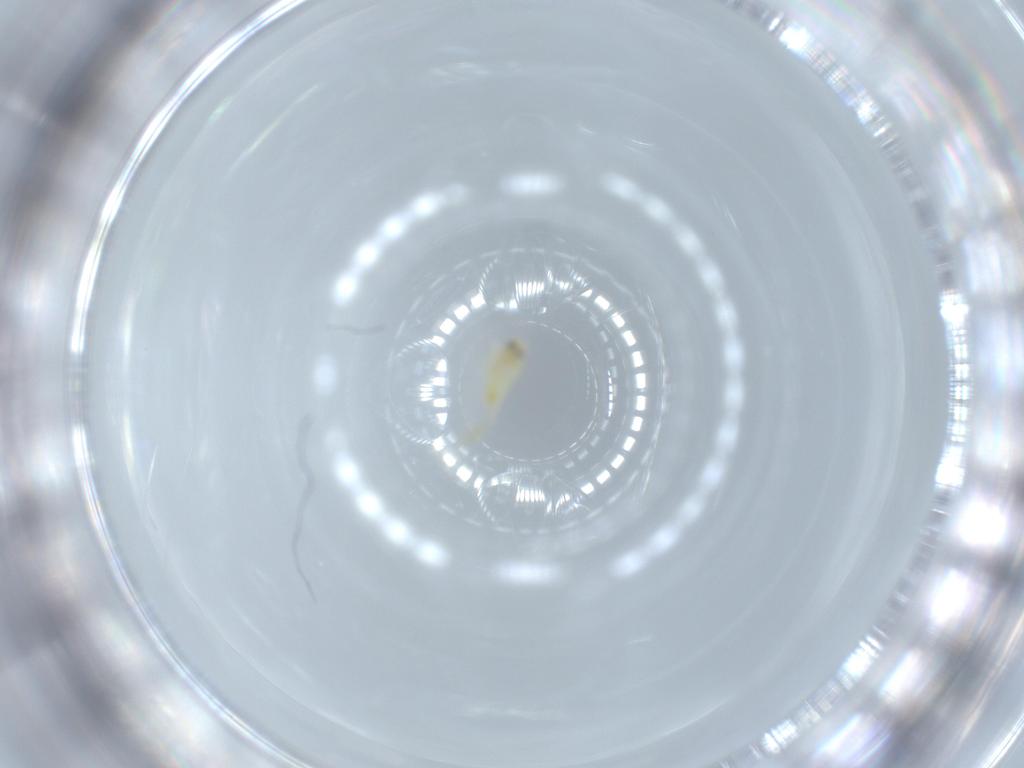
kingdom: Animalia
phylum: Arthropoda
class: Insecta
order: Hemiptera
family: Aleyrodidae
